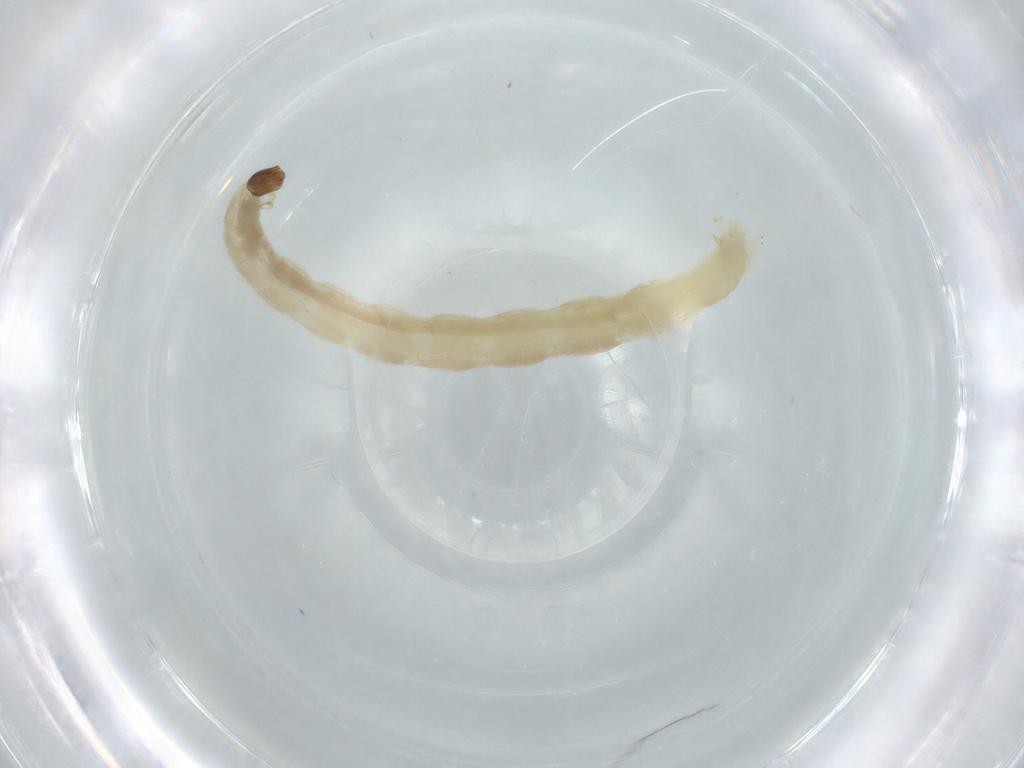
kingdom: Animalia
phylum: Arthropoda
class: Insecta
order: Diptera
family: Chironomidae
